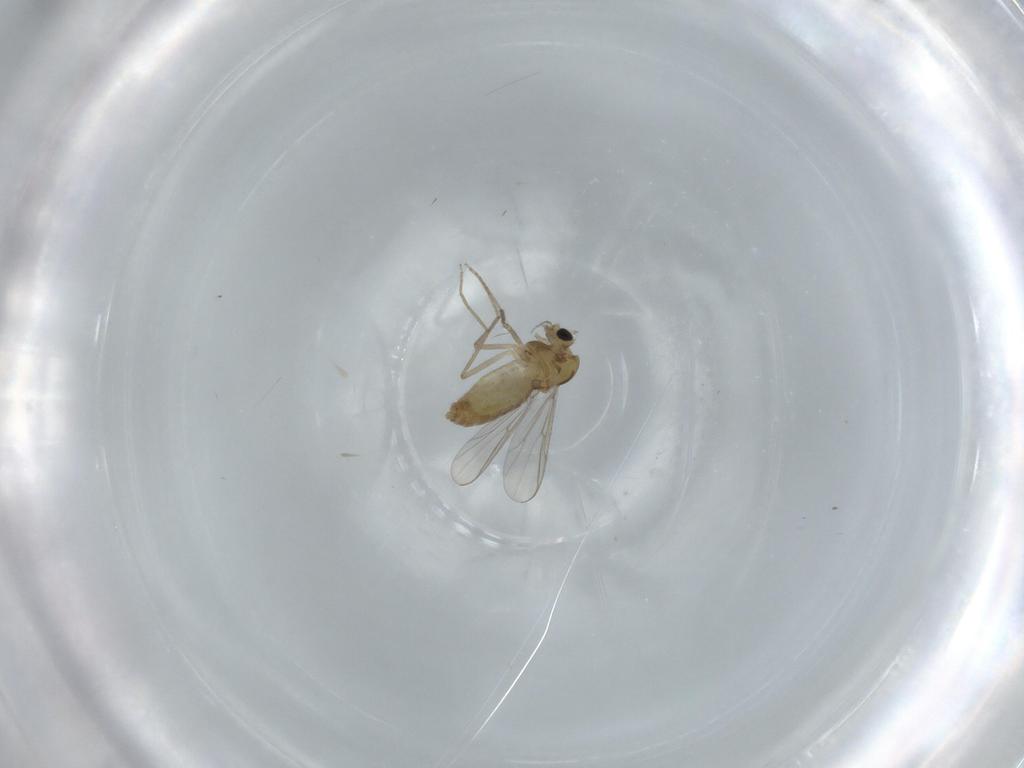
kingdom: Animalia
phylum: Arthropoda
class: Insecta
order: Diptera
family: Chironomidae
